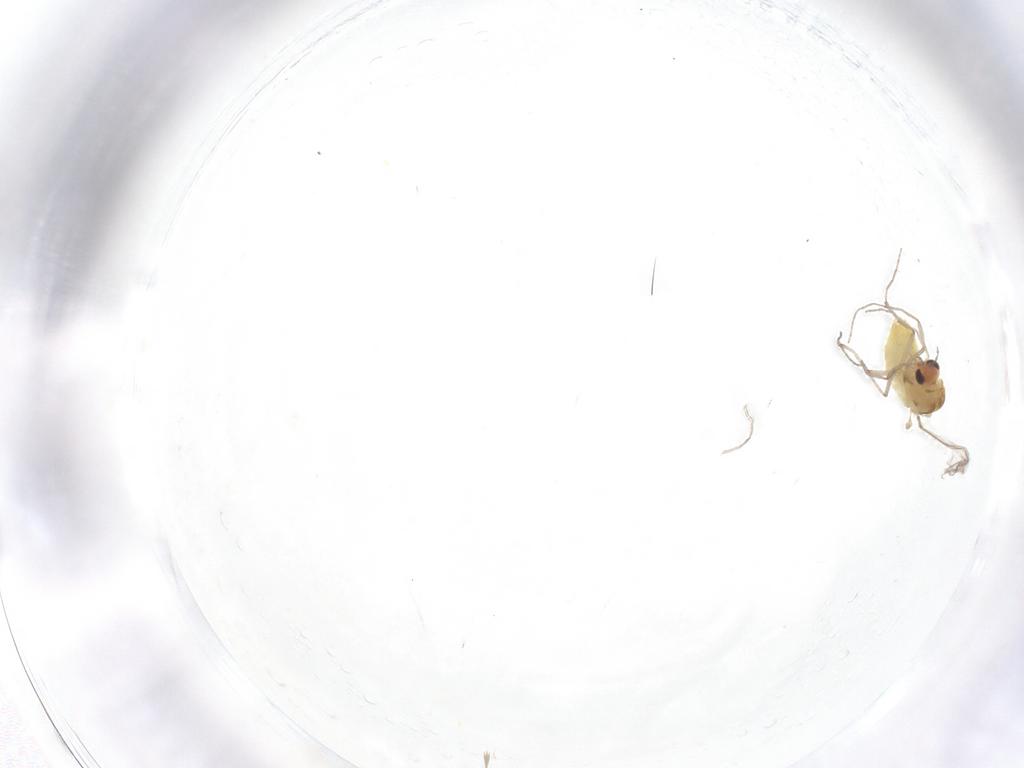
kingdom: Animalia
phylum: Arthropoda
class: Insecta
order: Diptera
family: Chironomidae
